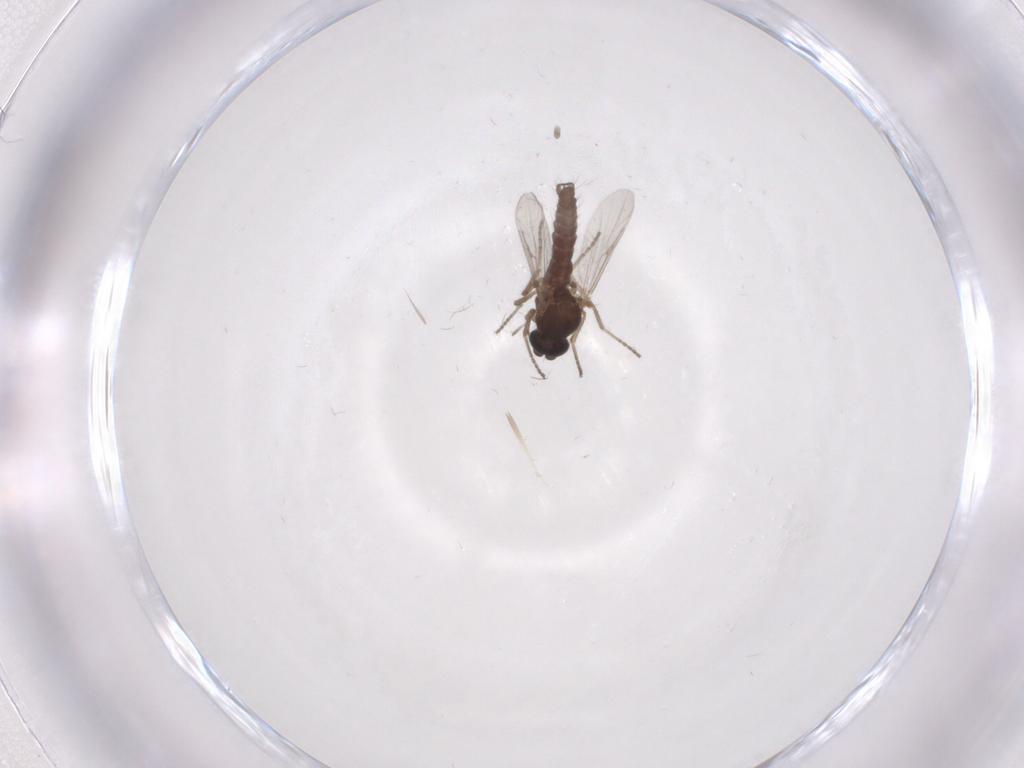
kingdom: Animalia
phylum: Arthropoda
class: Insecta
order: Diptera
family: Ceratopogonidae
